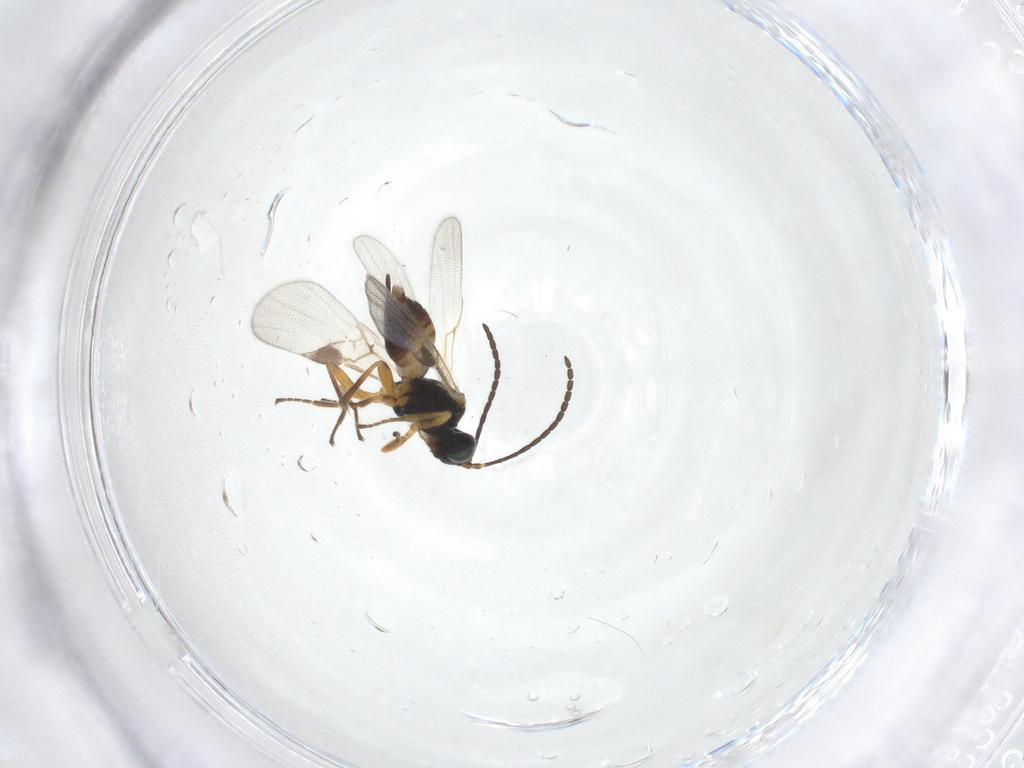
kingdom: Animalia
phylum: Arthropoda
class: Insecta
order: Hymenoptera
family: Braconidae
